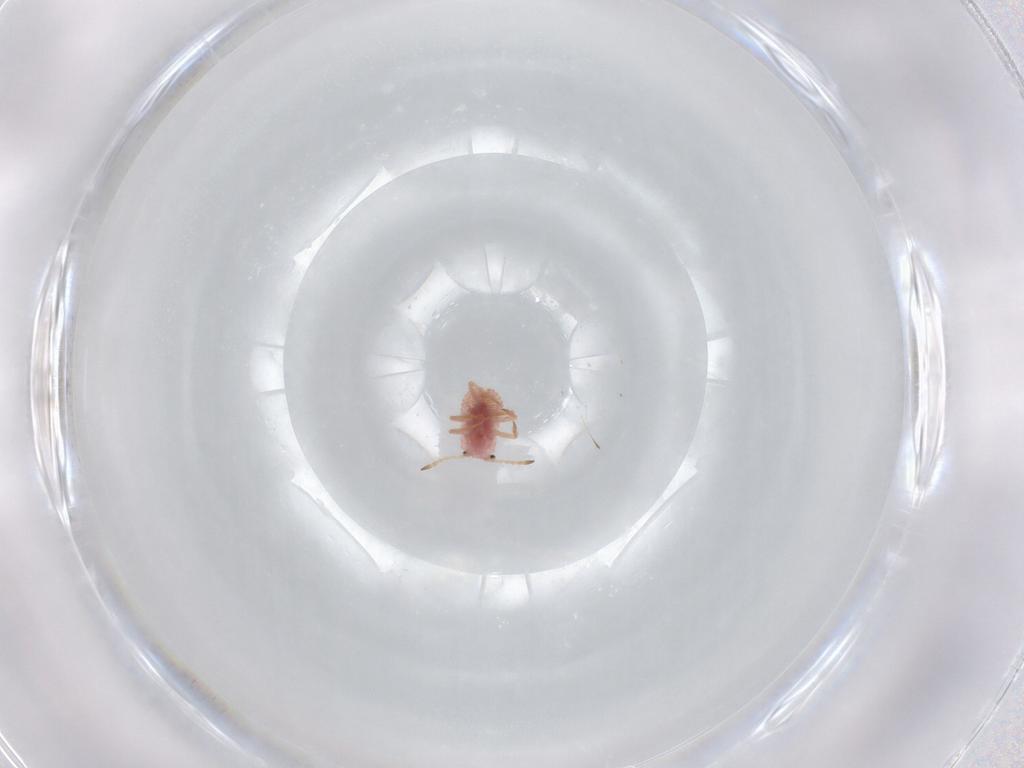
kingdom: Animalia
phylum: Arthropoda
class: Insecta
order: Hemiptera
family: Coccoidea_incertae_sedis
